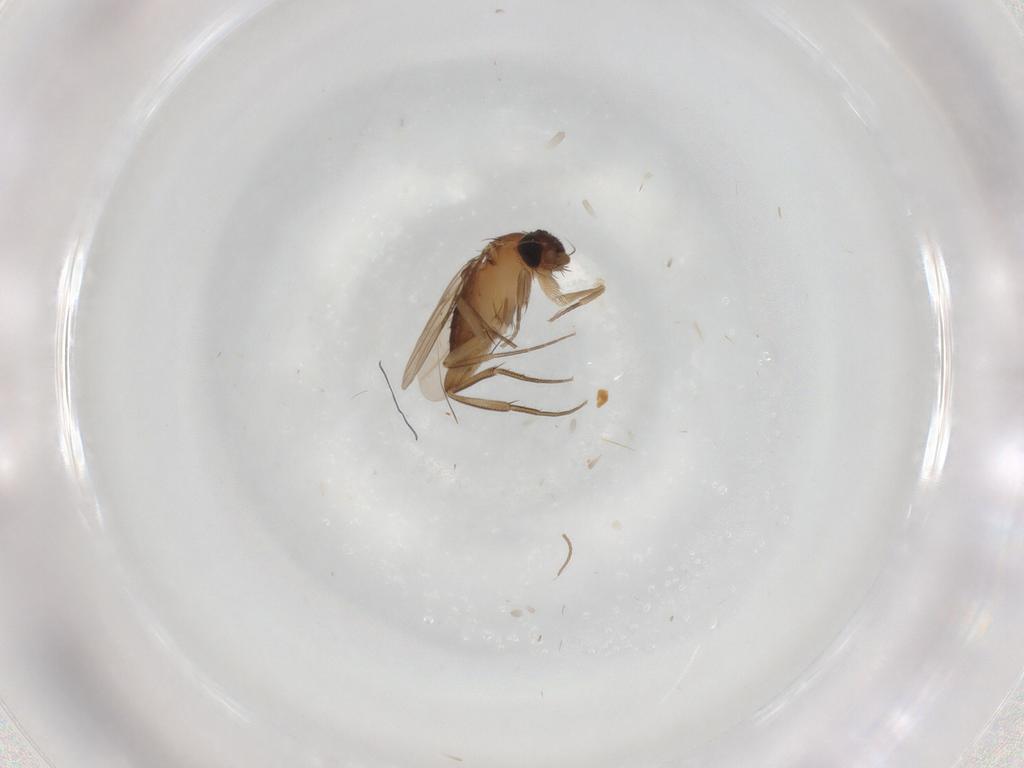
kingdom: Animalia
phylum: Arthropoda
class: Insecta
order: Diptera
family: Phoridae
